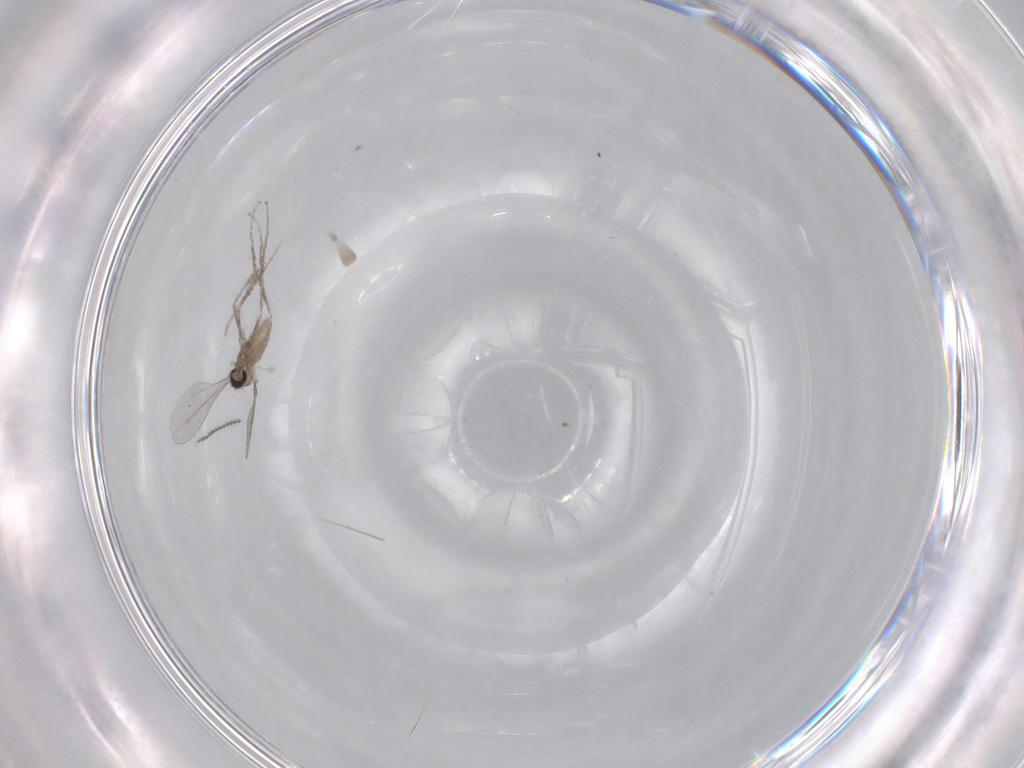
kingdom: Animalia
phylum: Arthropoda
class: Insecta
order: Diptera
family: Cecidomyiidae
